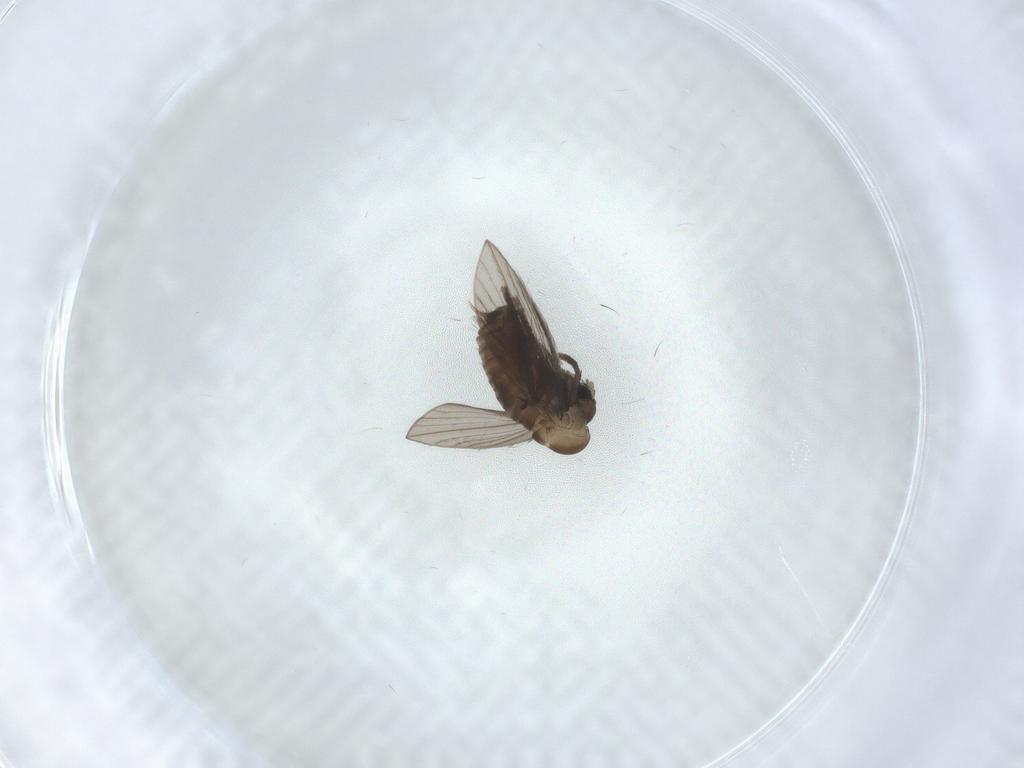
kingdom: Animalia
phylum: Arthropoda
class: Insecta
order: Diptera
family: Psychodidae
